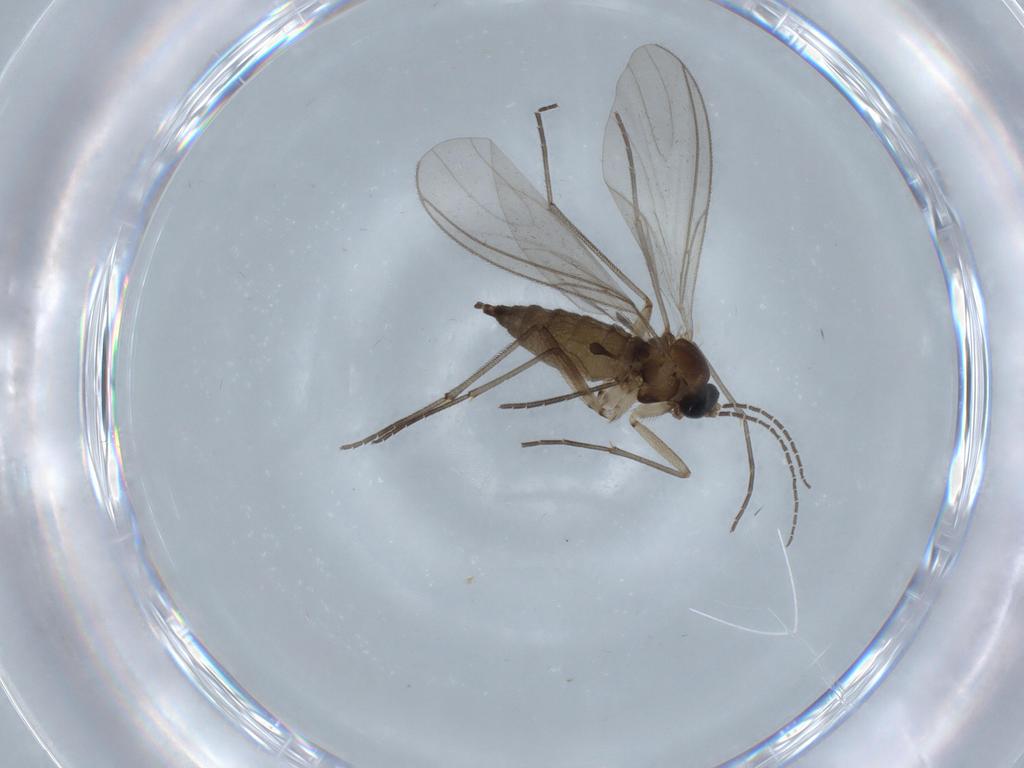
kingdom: Animalia
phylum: Arthropoda
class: Insecta
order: Diptera
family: Sciaridae
